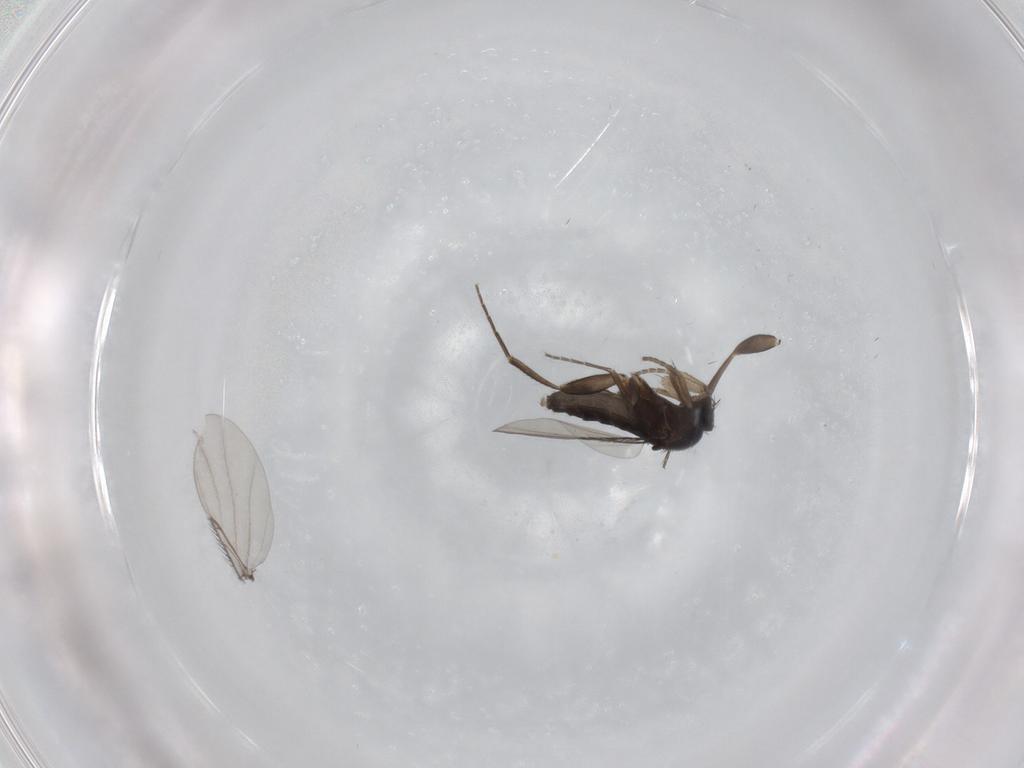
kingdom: Animalia
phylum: Arthropoda
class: Insecta
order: Diptera
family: Phoridae
